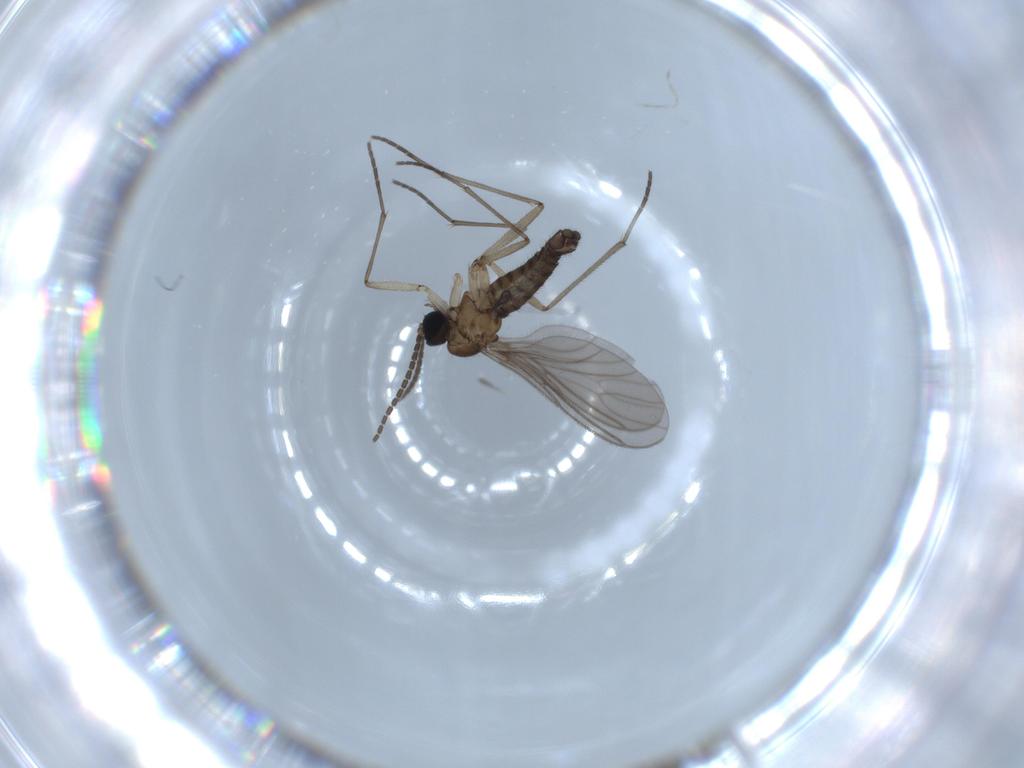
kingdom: Animalia
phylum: Arthropoda
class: Insecta
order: Diptera
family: Sciaridae
